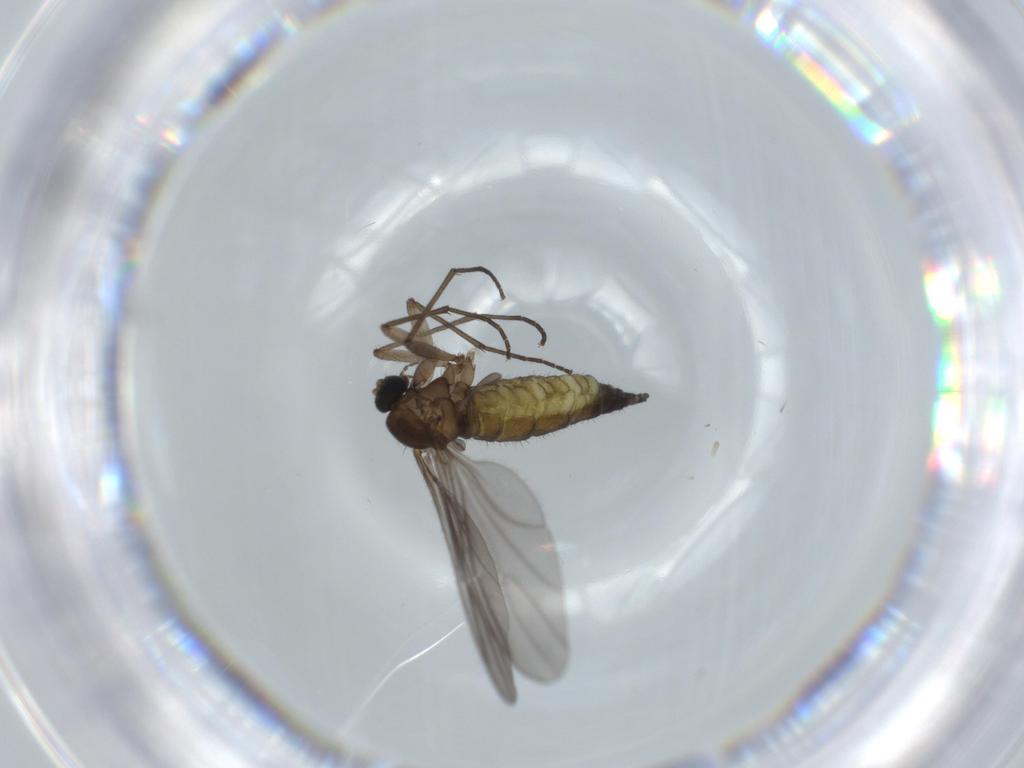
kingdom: Animalia
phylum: Arthropoda
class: Insecta
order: Diptera
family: Sciaridae
